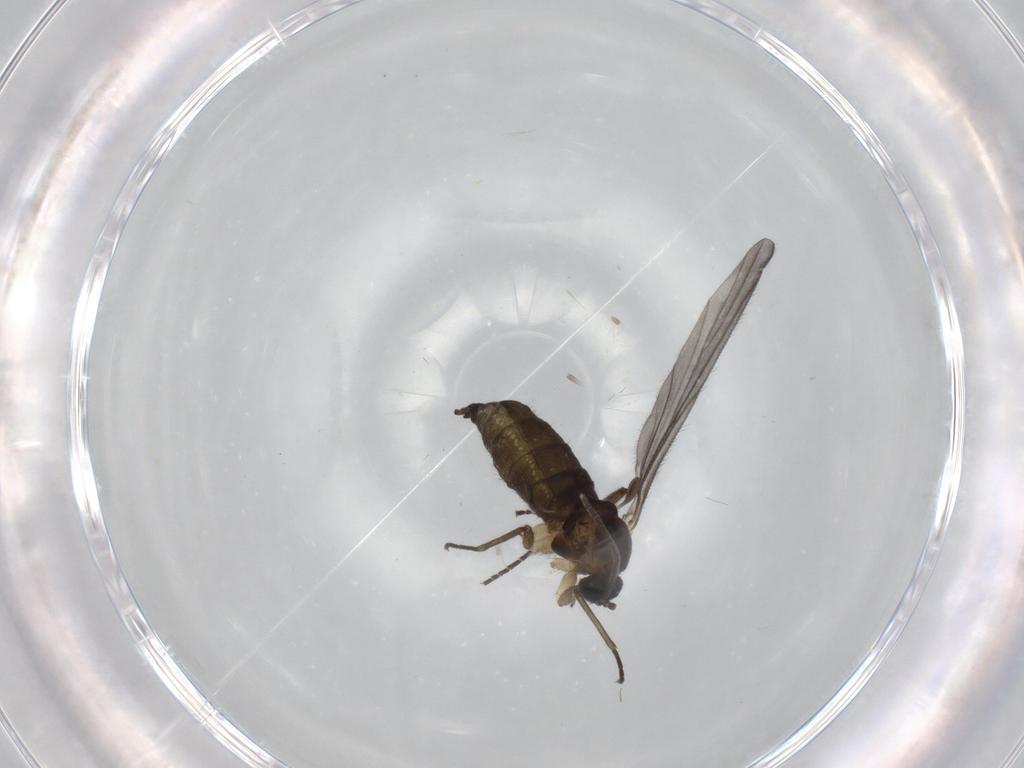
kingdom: Animalia
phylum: Arthropoda
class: Insecta
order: Diptera
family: Sciaridae
